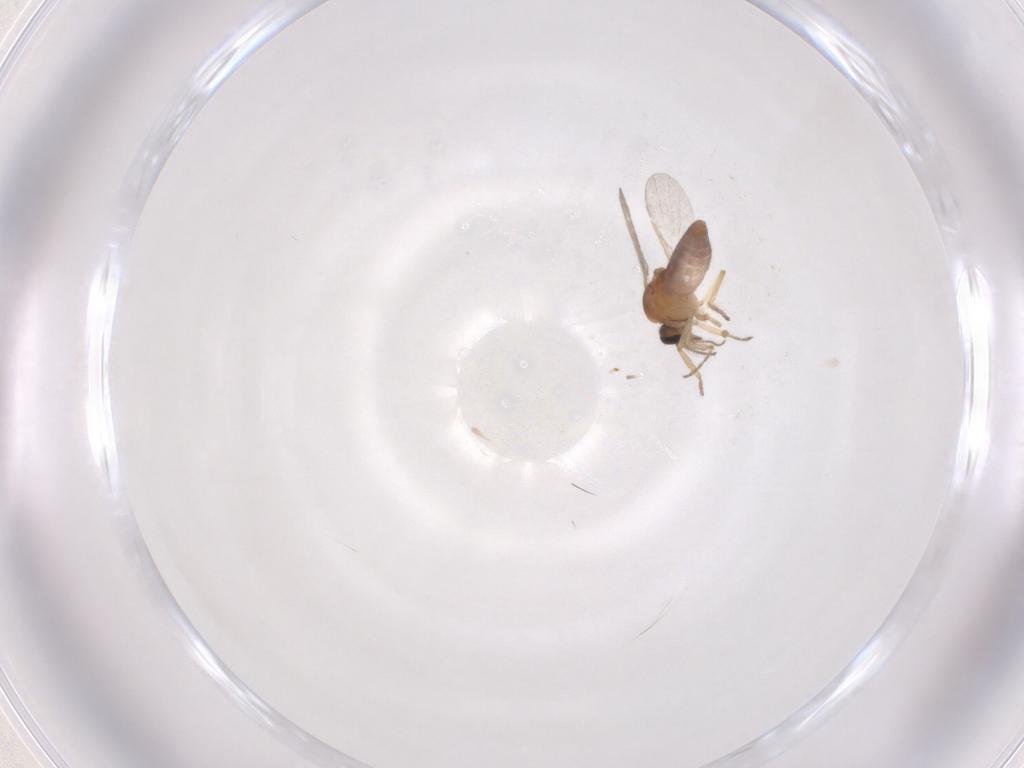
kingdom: Animalia
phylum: Arthropoda
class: Insecta
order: Diptera
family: Ceratopogonidae
